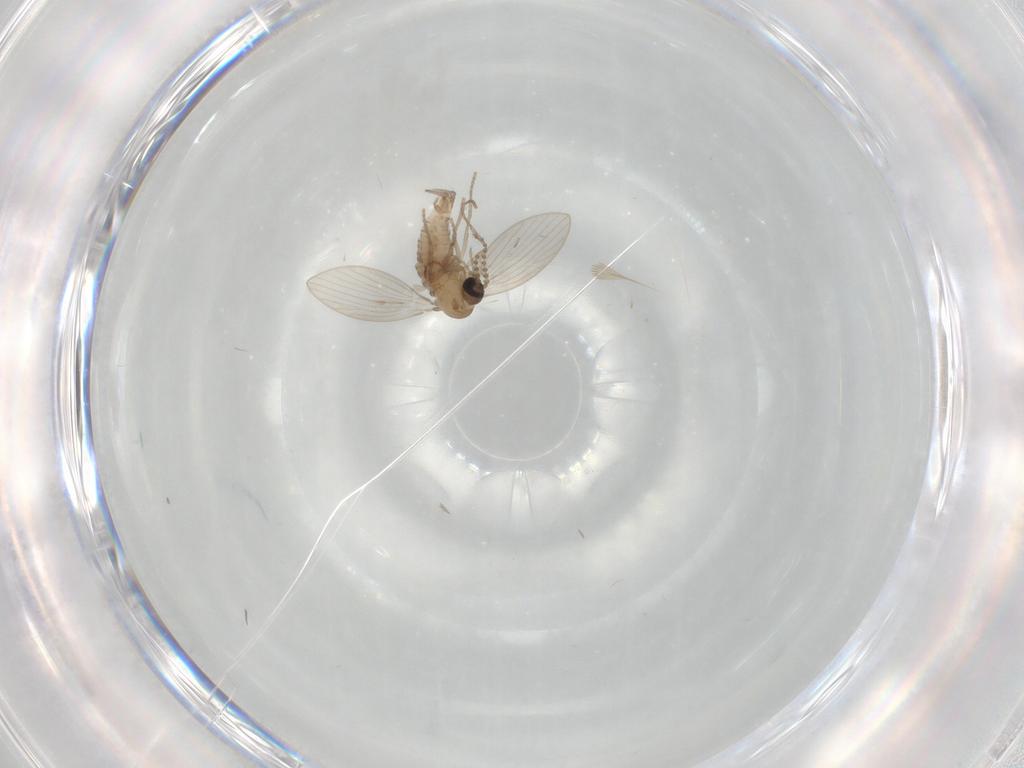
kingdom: Animalia
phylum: Arthropoda
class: Insecta
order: Diptera
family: Psychodidae
